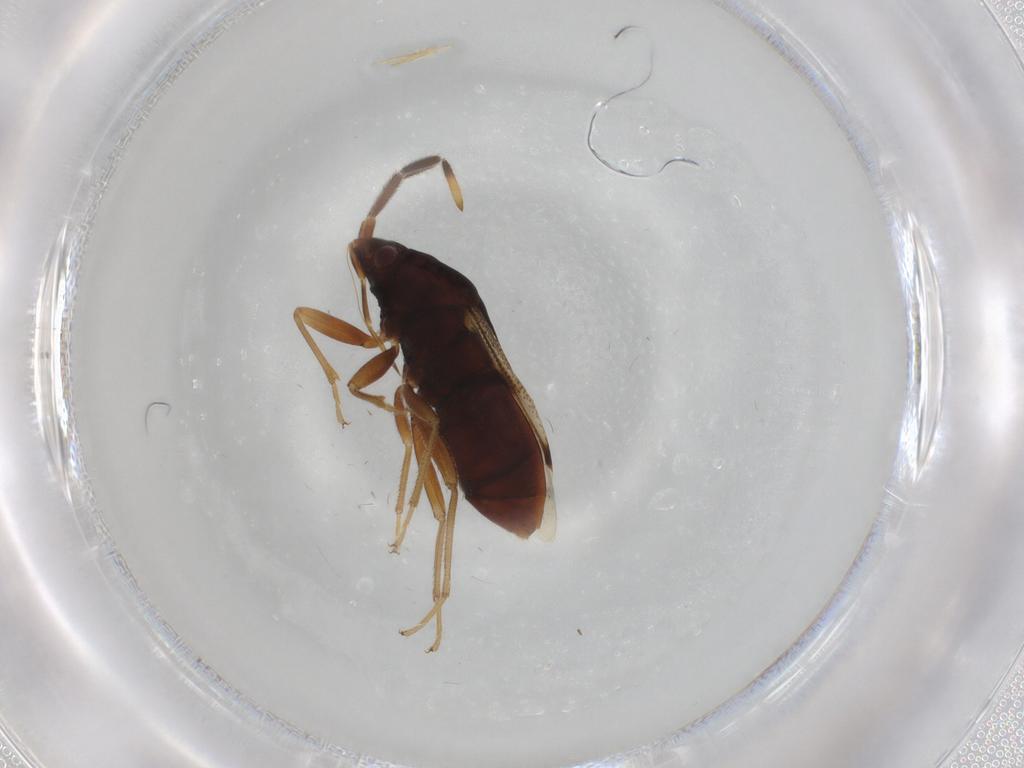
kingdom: Animalia
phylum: Arthropoda
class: Insecta
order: Hemiptera
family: Rhyparochromidae
